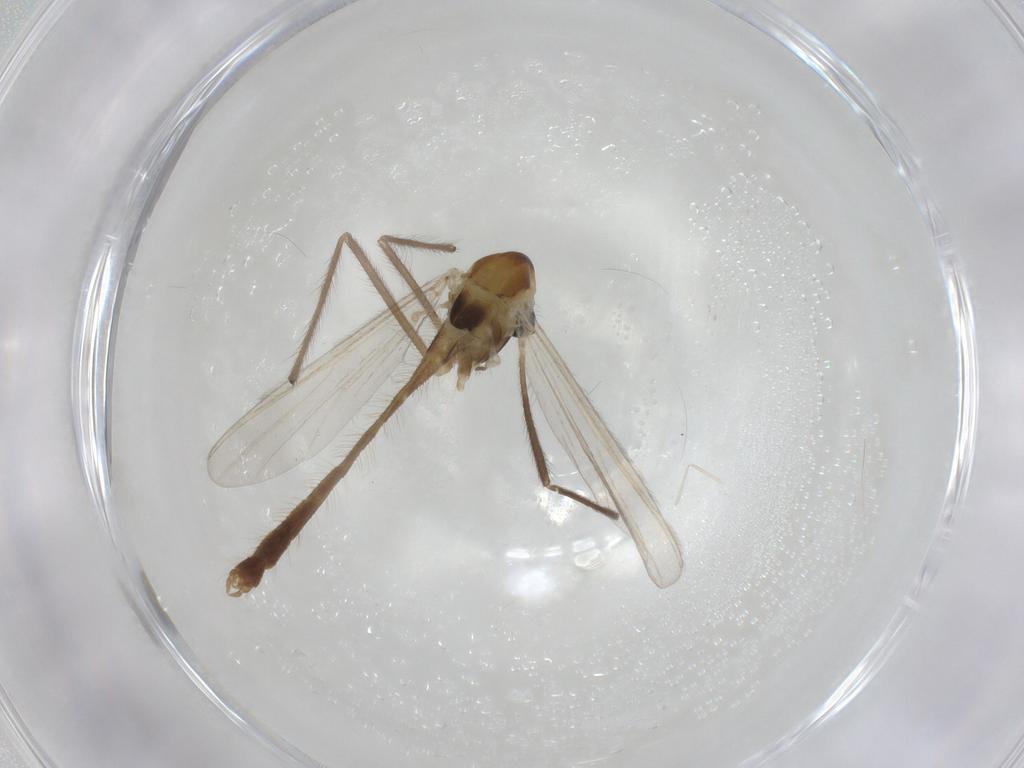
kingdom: Animalia
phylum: Arthropoda
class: Insecta
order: Diptera
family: Chironomidae
